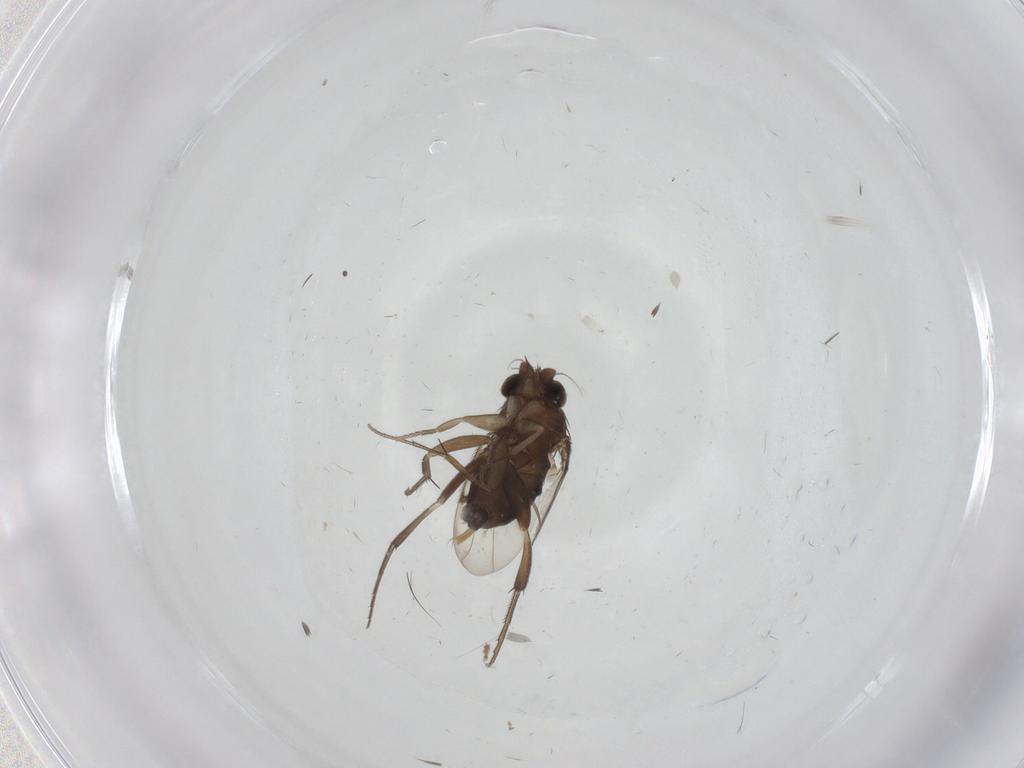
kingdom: Animalia
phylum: Arthropoda
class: Insecta
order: Diptera
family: Phoridae
